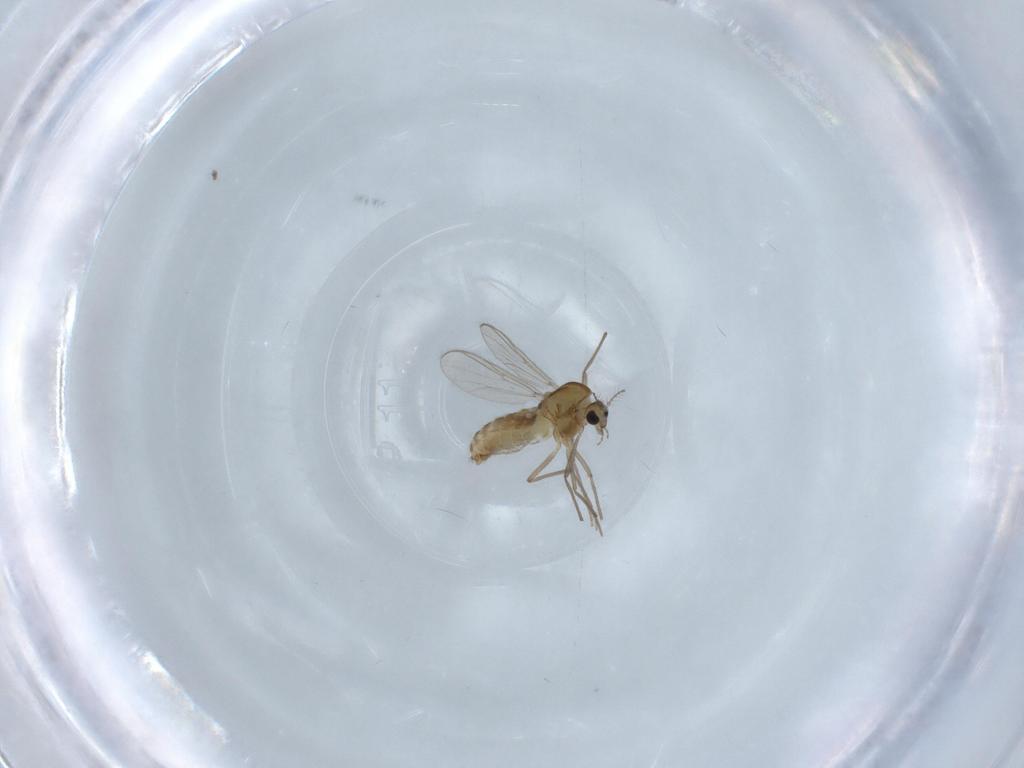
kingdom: Animalia
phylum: Arthropoda
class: Insecta
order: Diptera
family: Chironomidae
